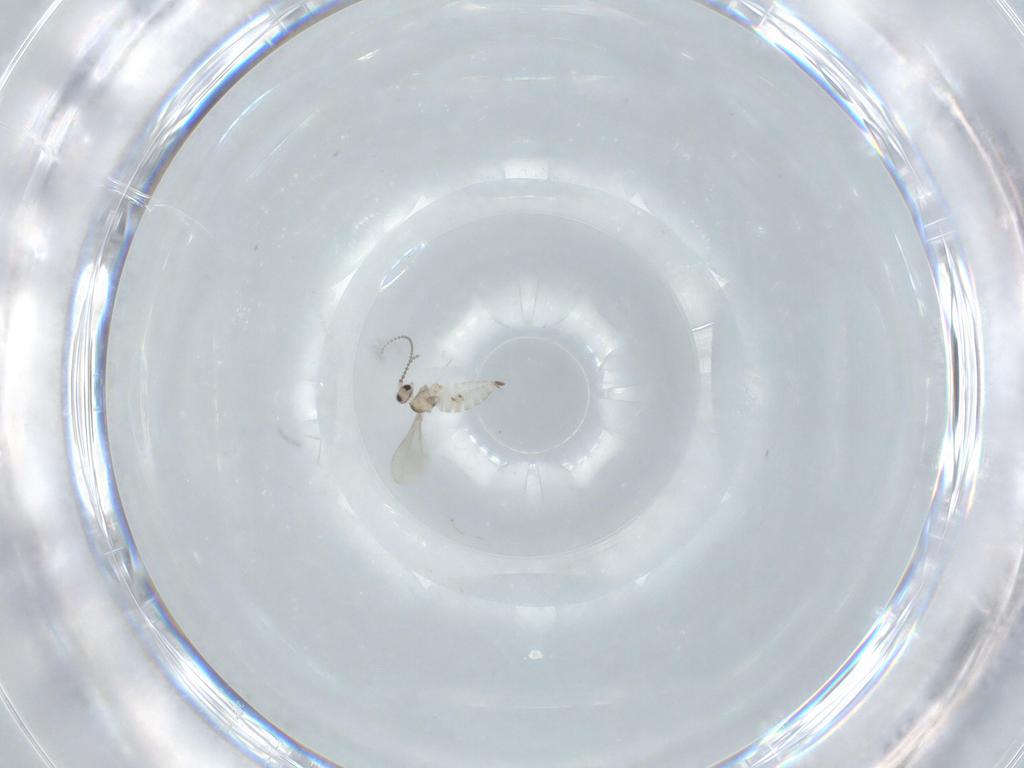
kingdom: Animalia
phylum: Arthropoda
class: Insecta
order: Diptera
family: Cecidomyiidae
